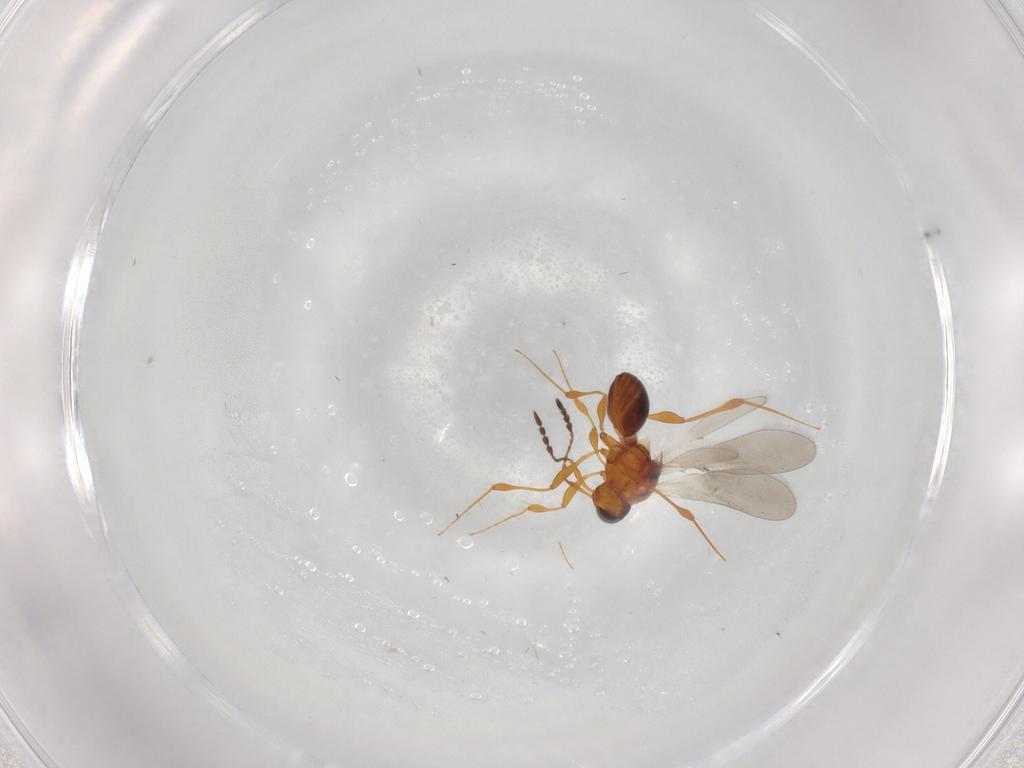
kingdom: Animalia
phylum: Arthropoda
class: Insecta
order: Hymenoptera
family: Platygastridae
